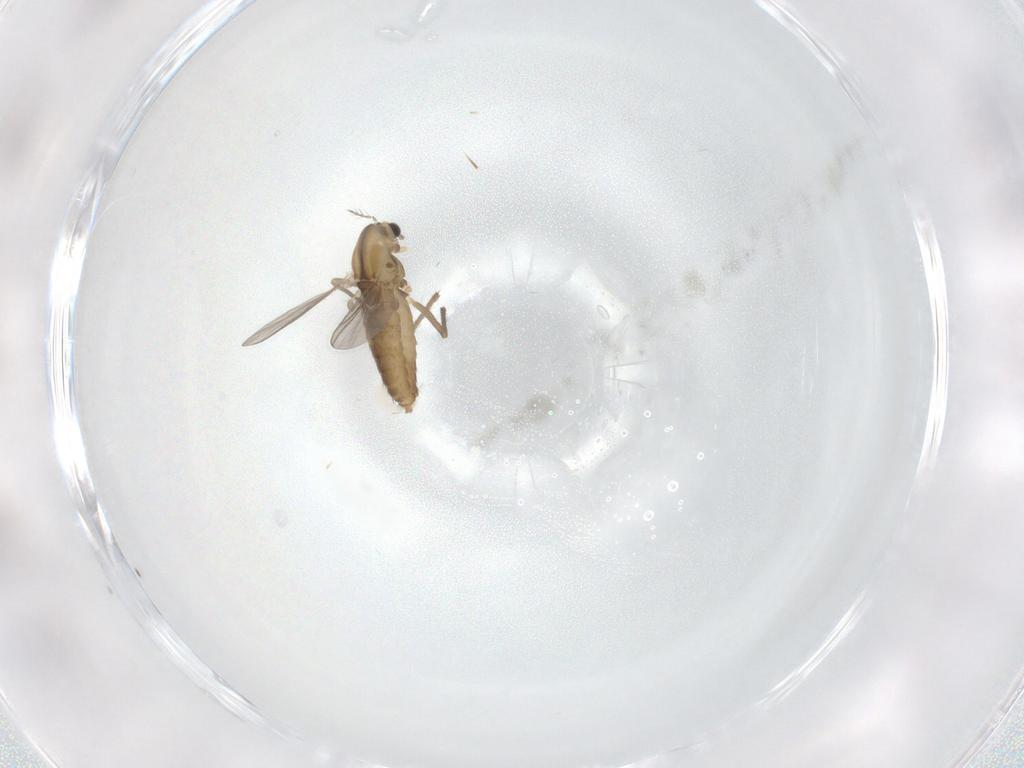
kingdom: Animalia
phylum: Arthropoda
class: Insecta
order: Diptera
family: Chironomidae
